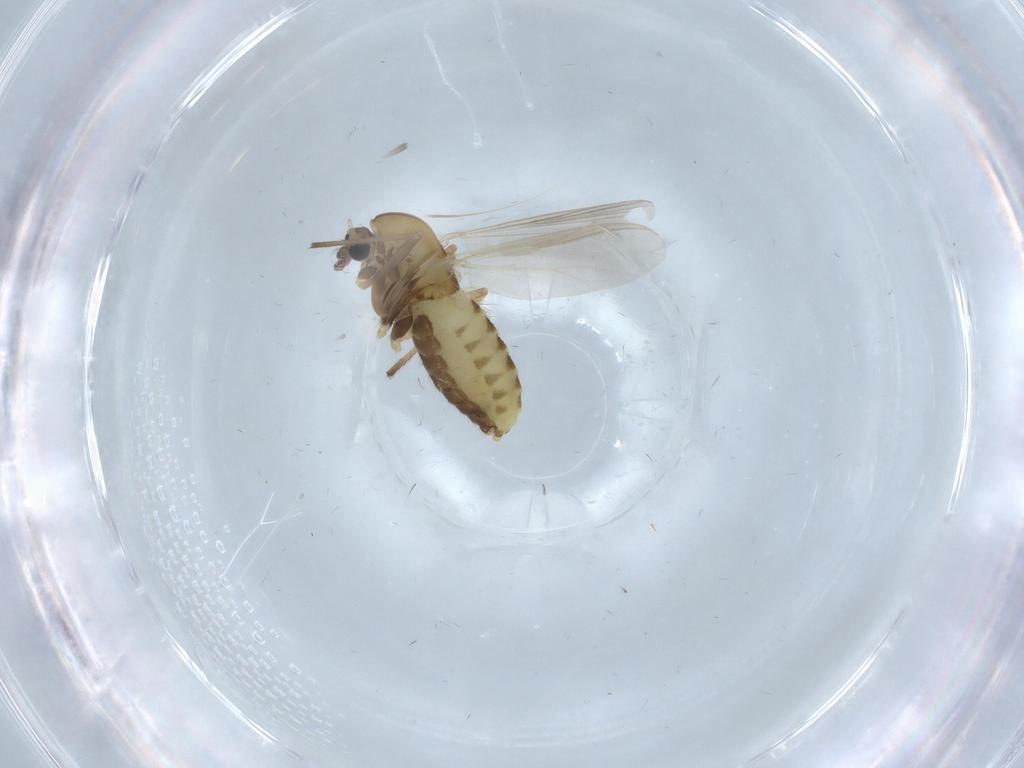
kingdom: Animalia
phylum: Arthropoda
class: Insecta
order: Diptera
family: Chironomidae
